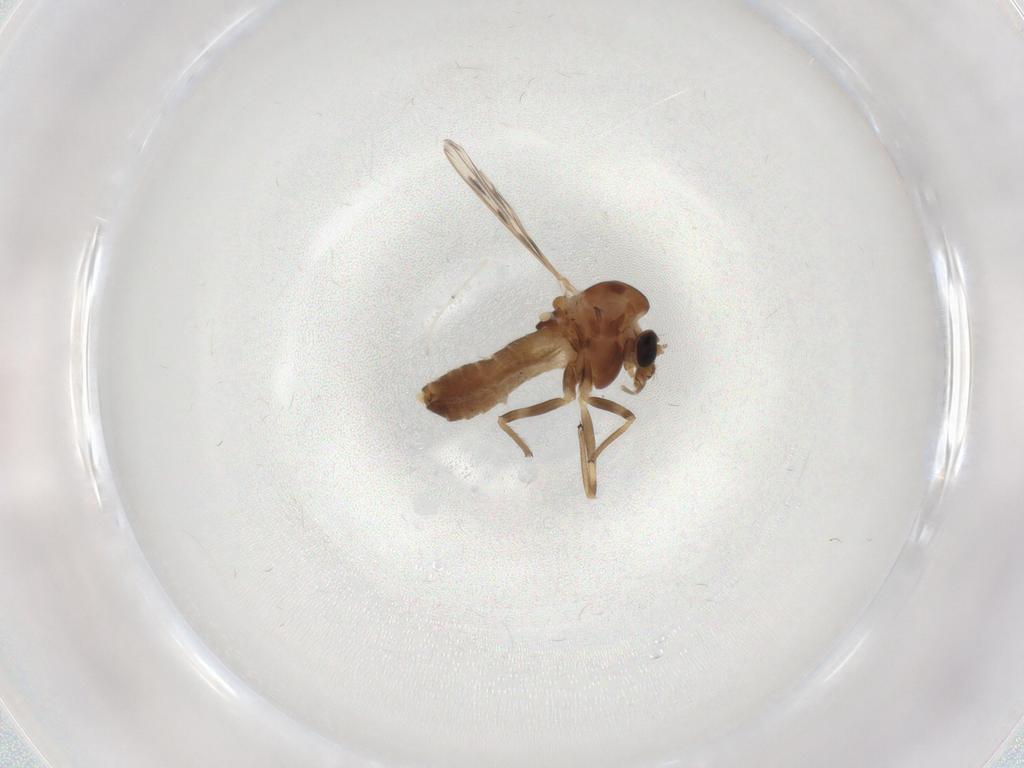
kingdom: Animalia
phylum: Arthropoda
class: Insecta
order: Diptera
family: Chironomidae
